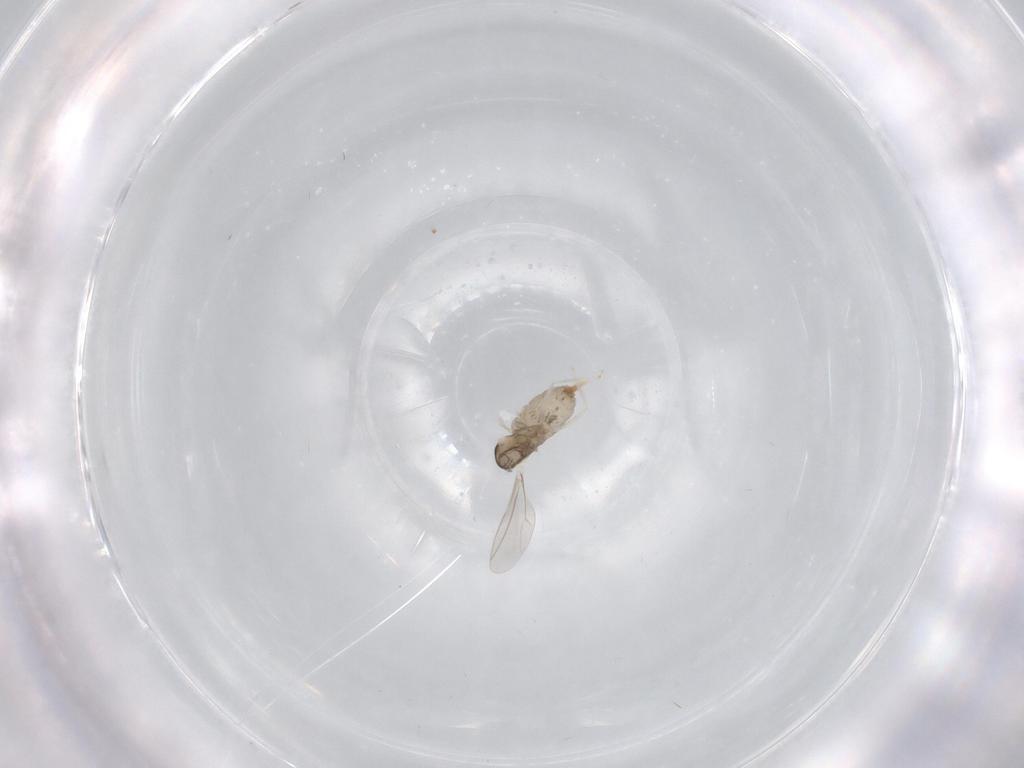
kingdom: Animalia
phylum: Arthropoda
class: Insecta
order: Diptera
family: Cecidomyiidae
